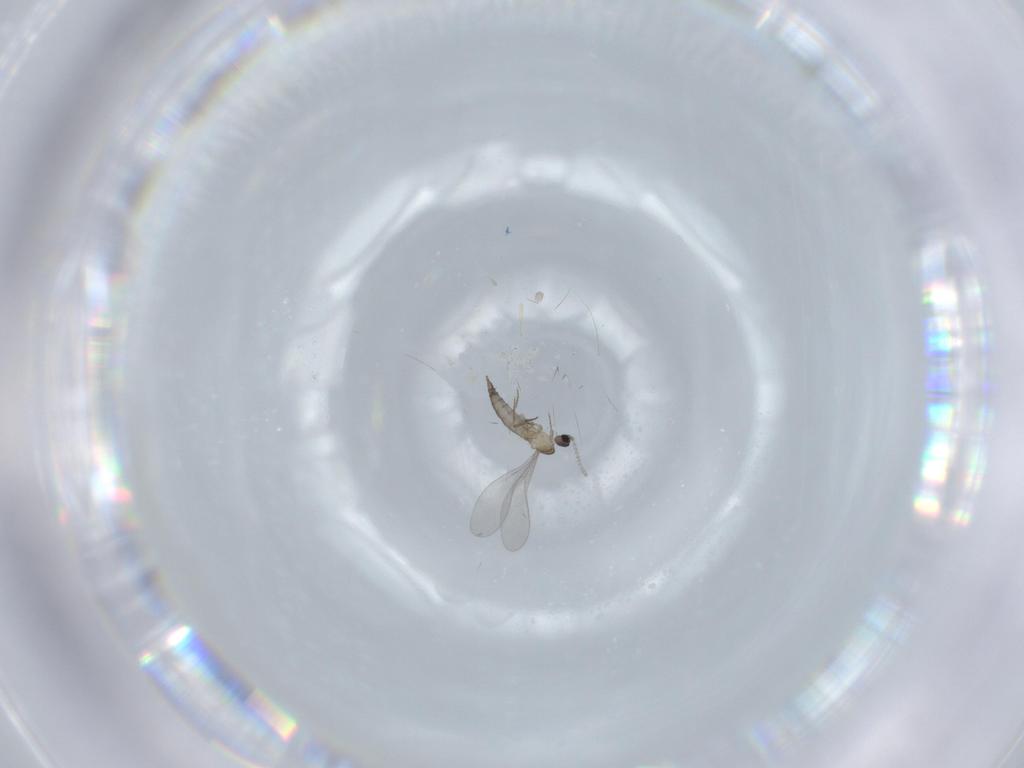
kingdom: Animalia
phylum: Arthropoda
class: Insecta
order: Diptera
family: Cecidomyiidae
